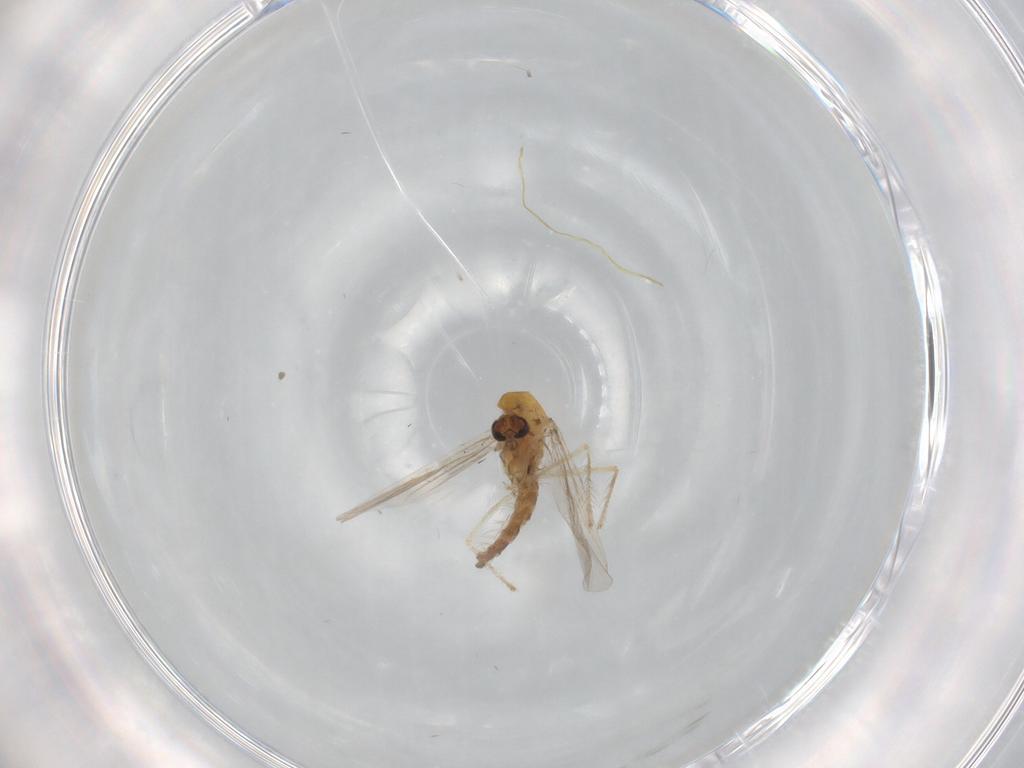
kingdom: Animalia
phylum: Arthropoda
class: Insecta
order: Diptera
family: Chironomidae
